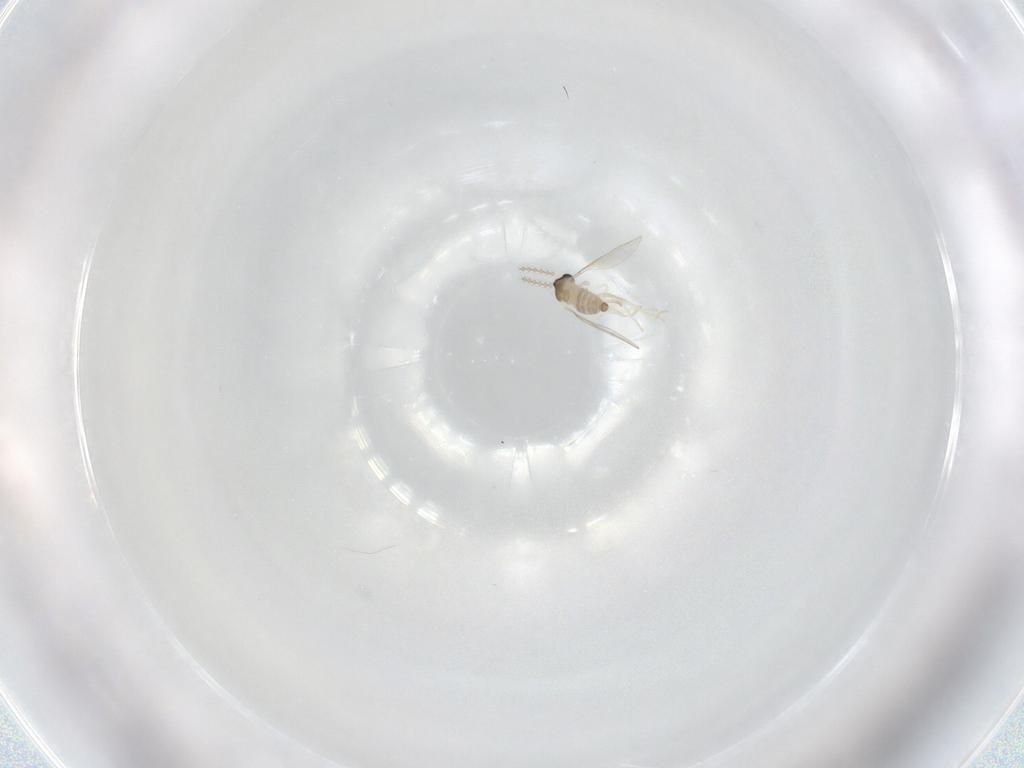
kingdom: Animalia
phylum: Arthropoda
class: Insecta
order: Diptera
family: Cecidomyiidae
